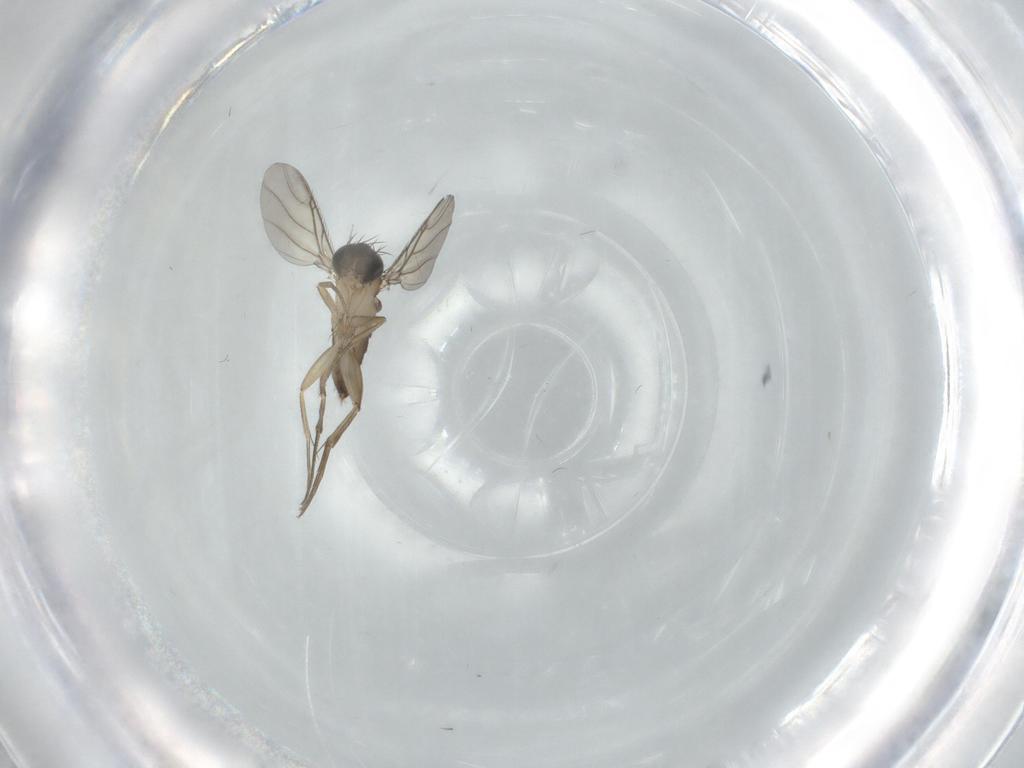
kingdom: Animalia
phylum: Arthropoda
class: Insecta
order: Diptera
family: Phoridae
